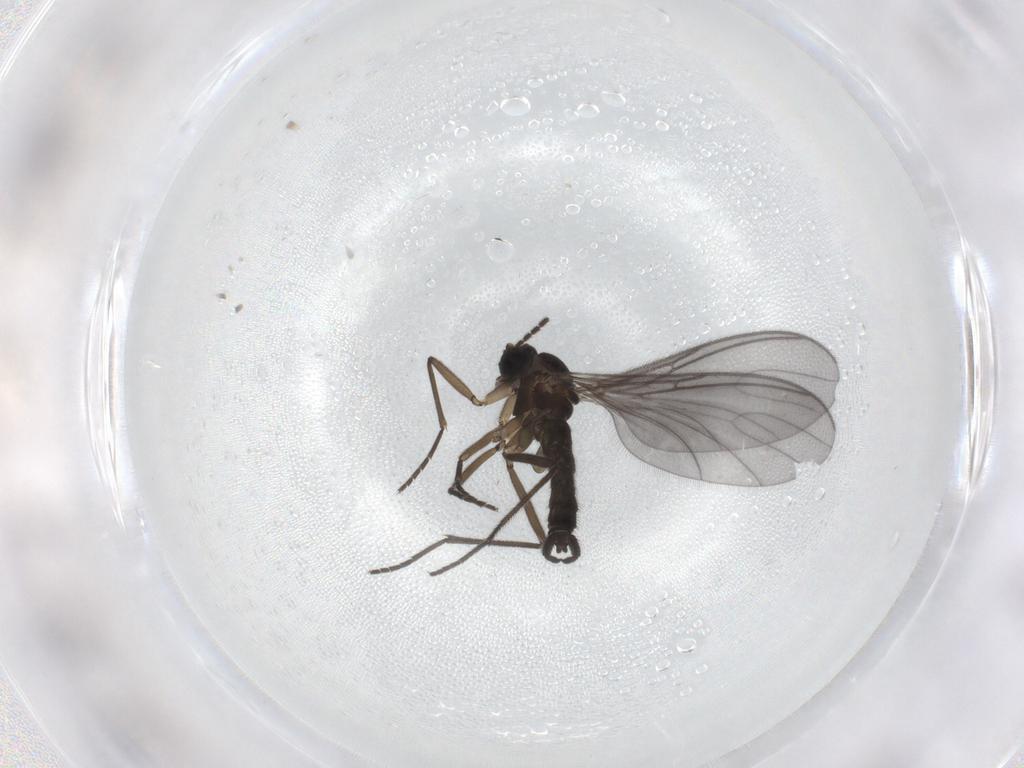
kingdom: Animalia
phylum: Arthropoda
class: Insecta
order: Diptera
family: Sciaridae
